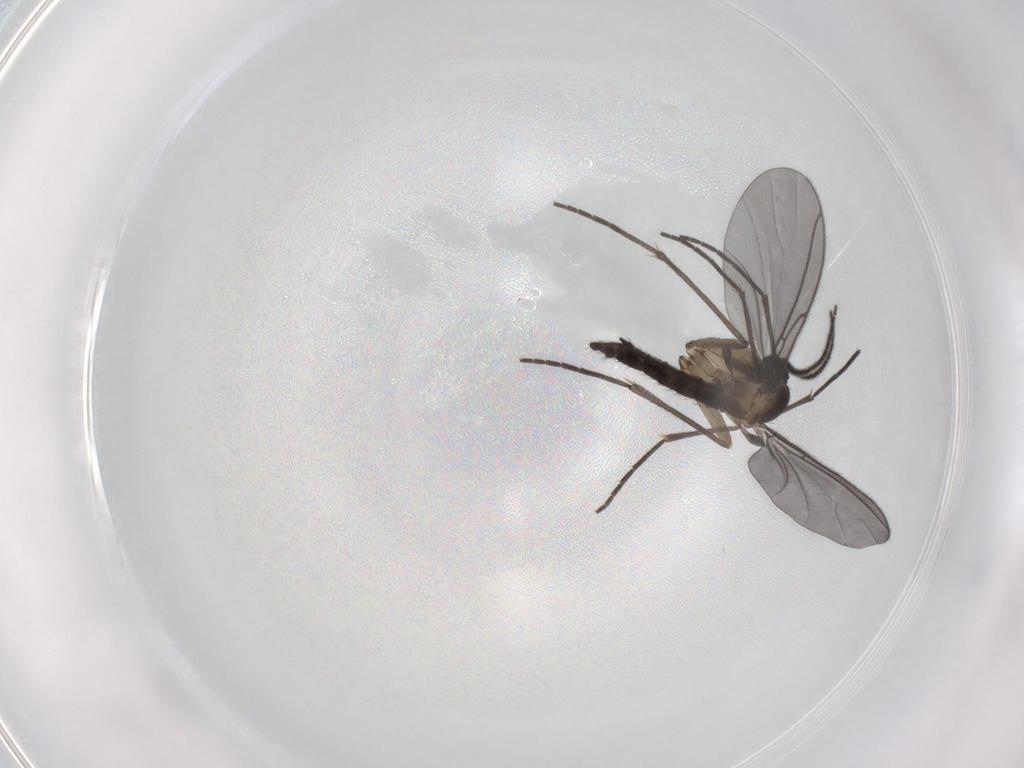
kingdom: Animalia
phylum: Arthropoda
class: Insecta
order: Diptera
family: Sciaridae
